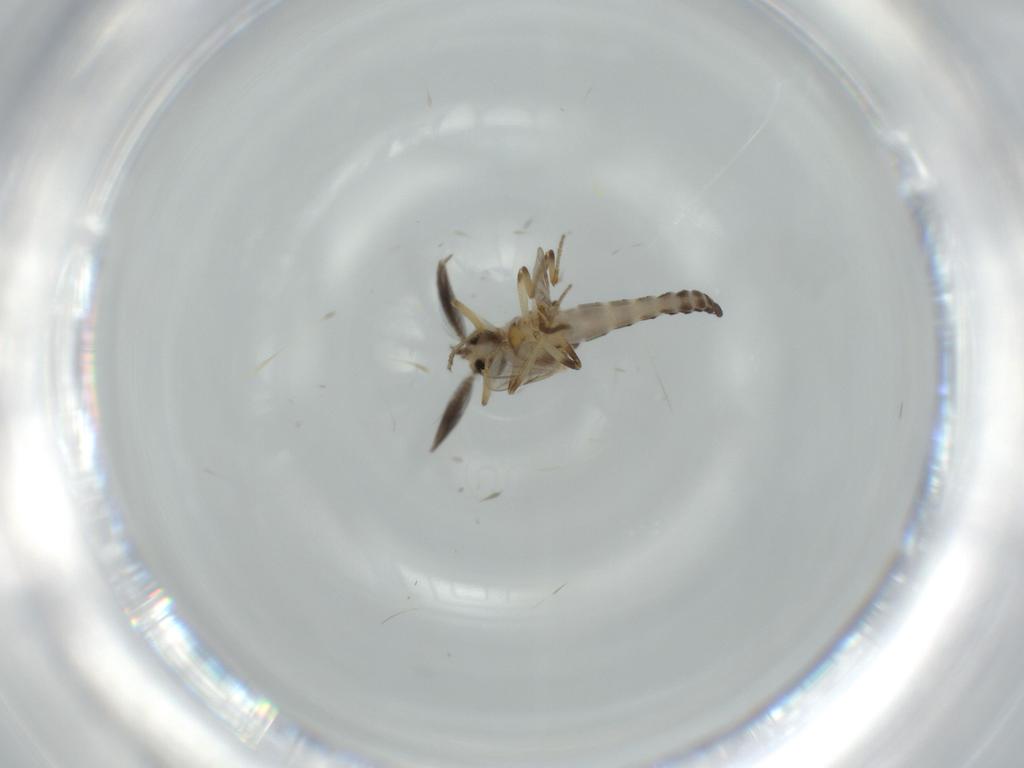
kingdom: Animalia
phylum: Arthropoda
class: Insecta
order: Diptera
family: Ceratopogonidae
